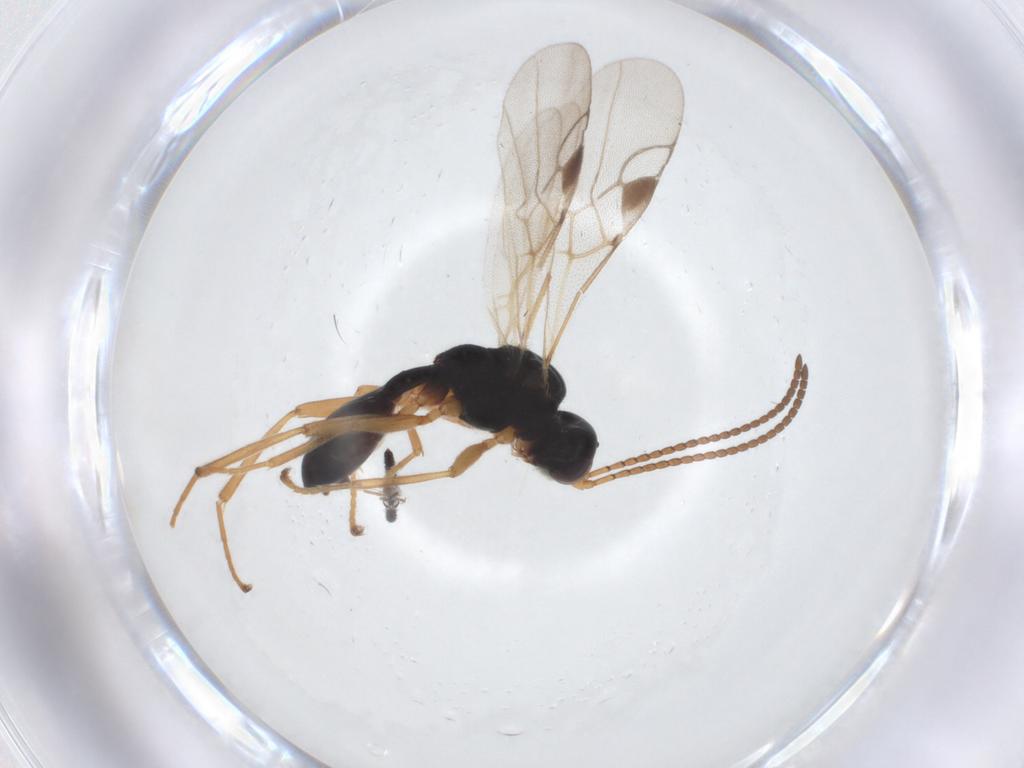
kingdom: Animalia
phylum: Arthropoda
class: Insecta
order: Hymenoptera
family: Braconidae
